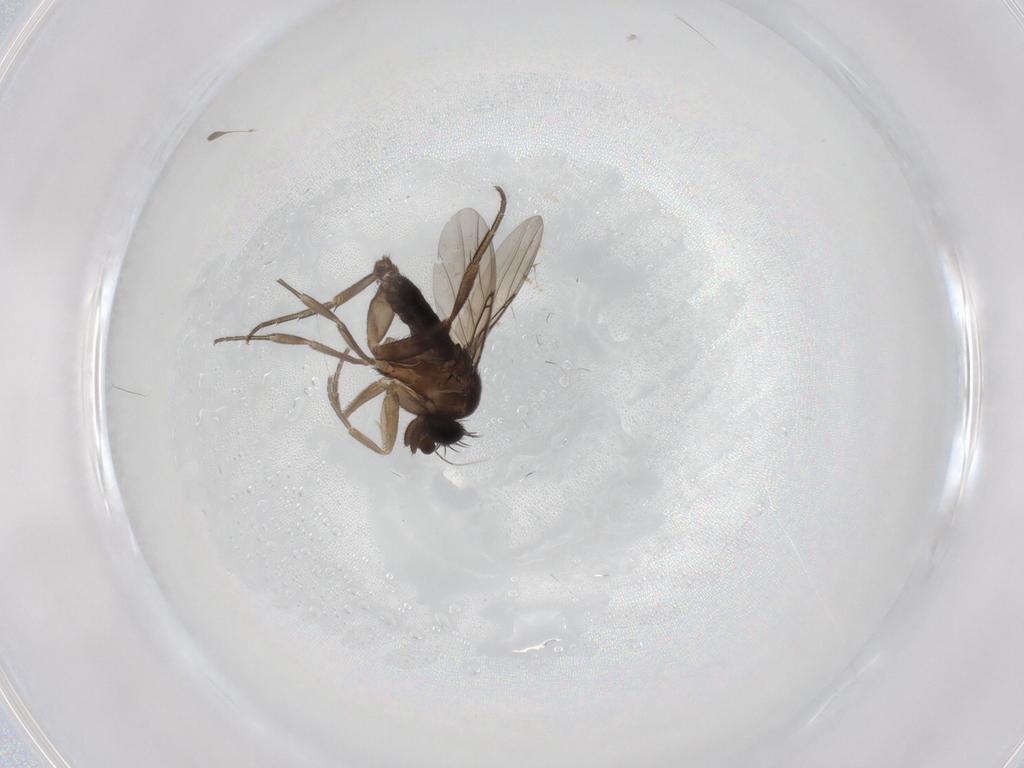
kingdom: Animalia
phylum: Arthropoda
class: Insecta
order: Diptera
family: Phoridae
